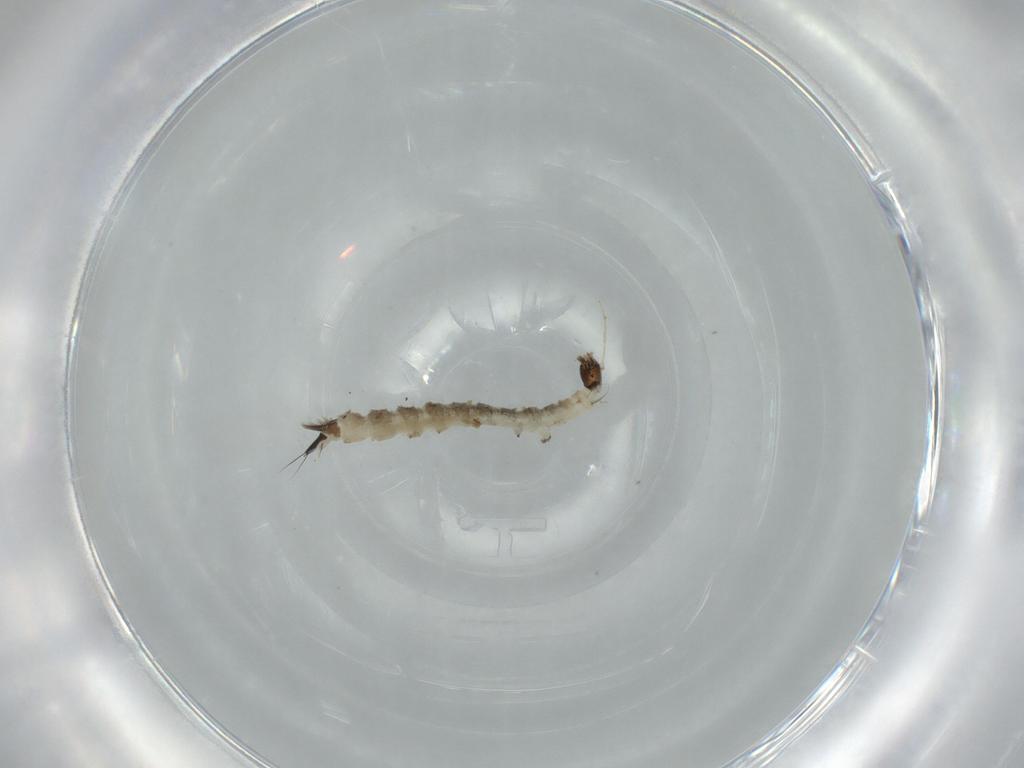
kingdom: Animalia
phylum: Arthropoda
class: Insecta
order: Diptera
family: Dixidae
